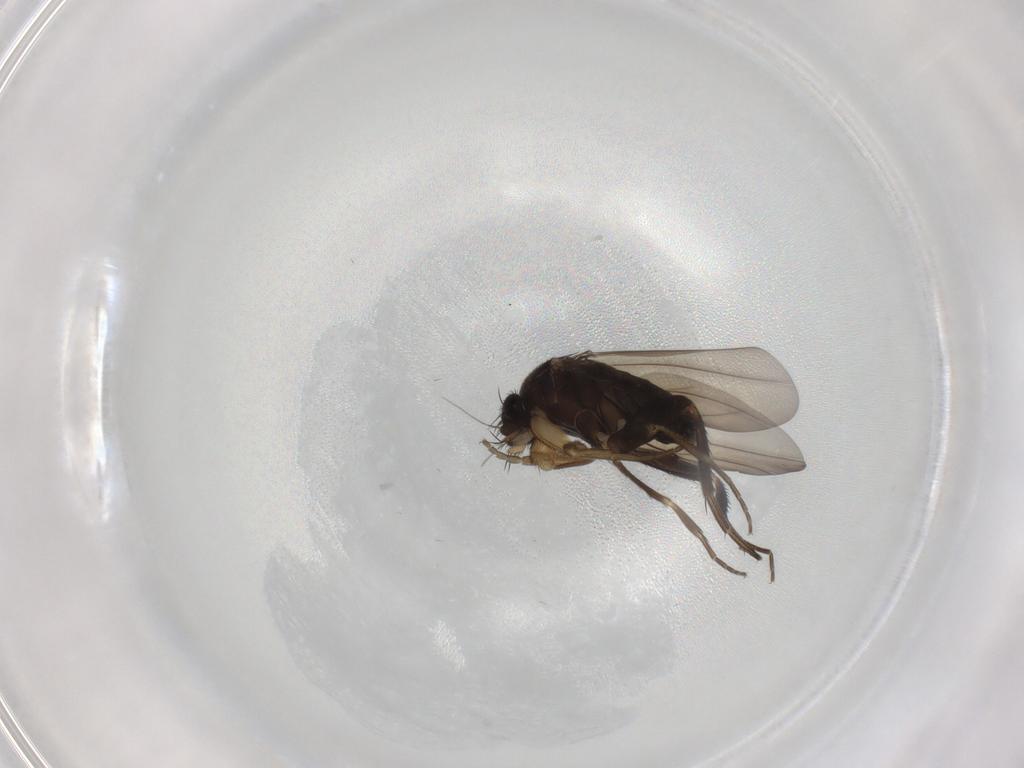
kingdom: Animalia
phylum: Arthropoda
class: Insecta
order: Diptera
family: Phoridae
